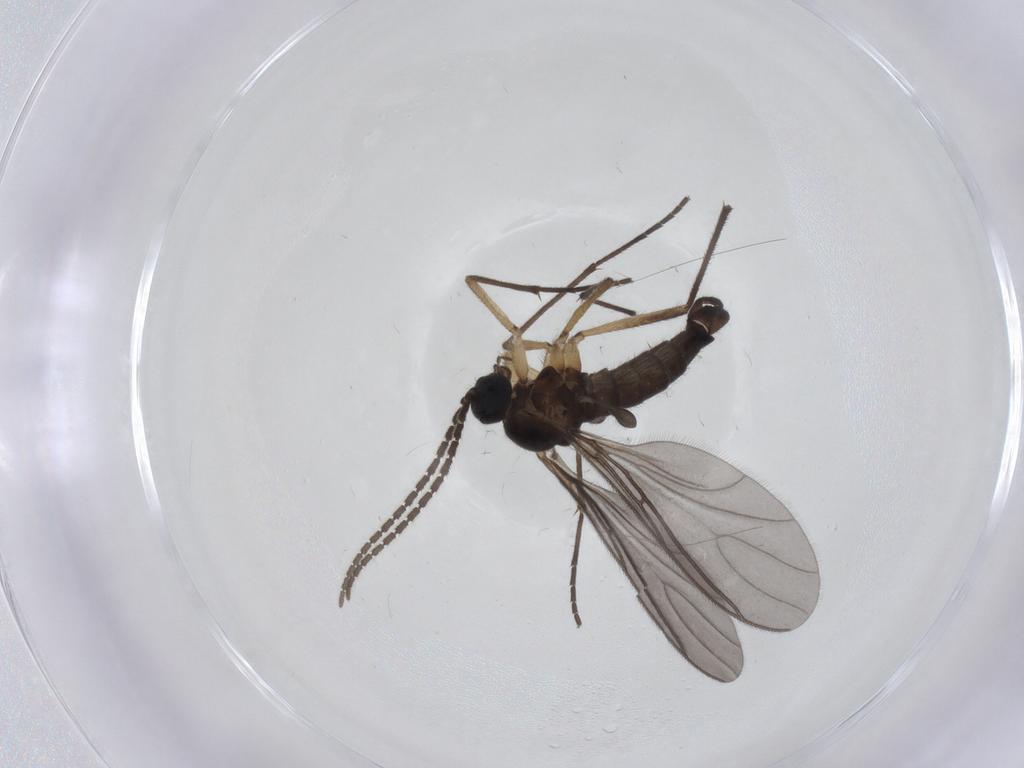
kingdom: Animalia
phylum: Arthropoda
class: Insecta
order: Diptera
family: Sciaridae
